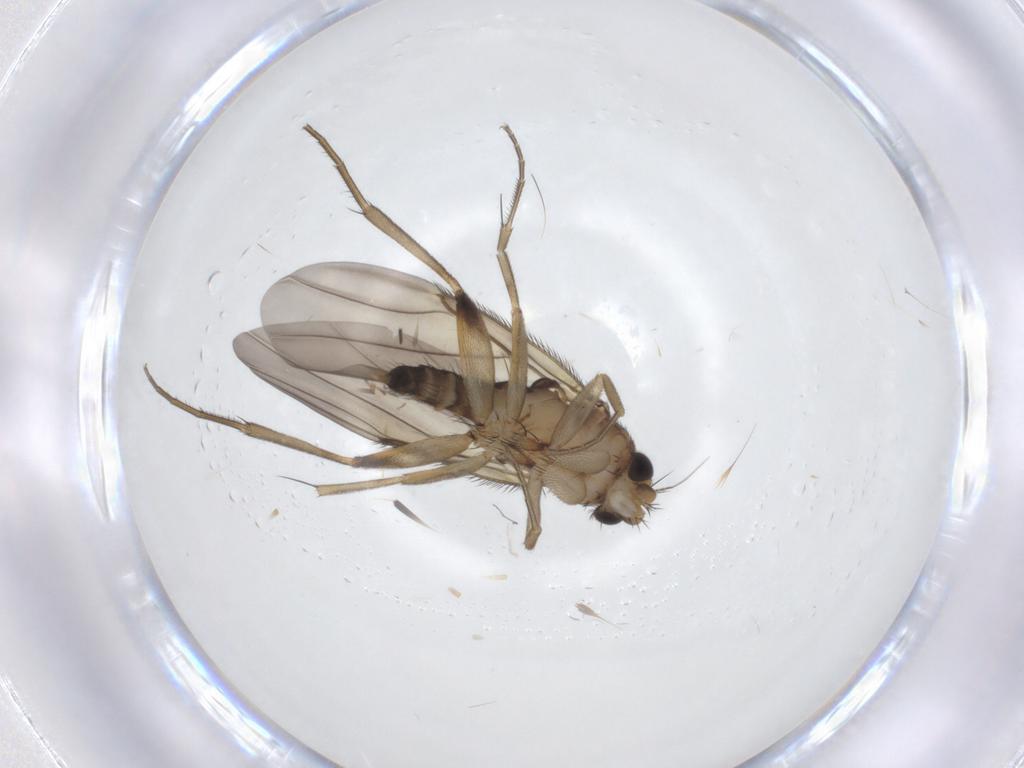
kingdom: Animalia
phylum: Arthropoda
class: Insecta
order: Diptera
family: Phoridae
